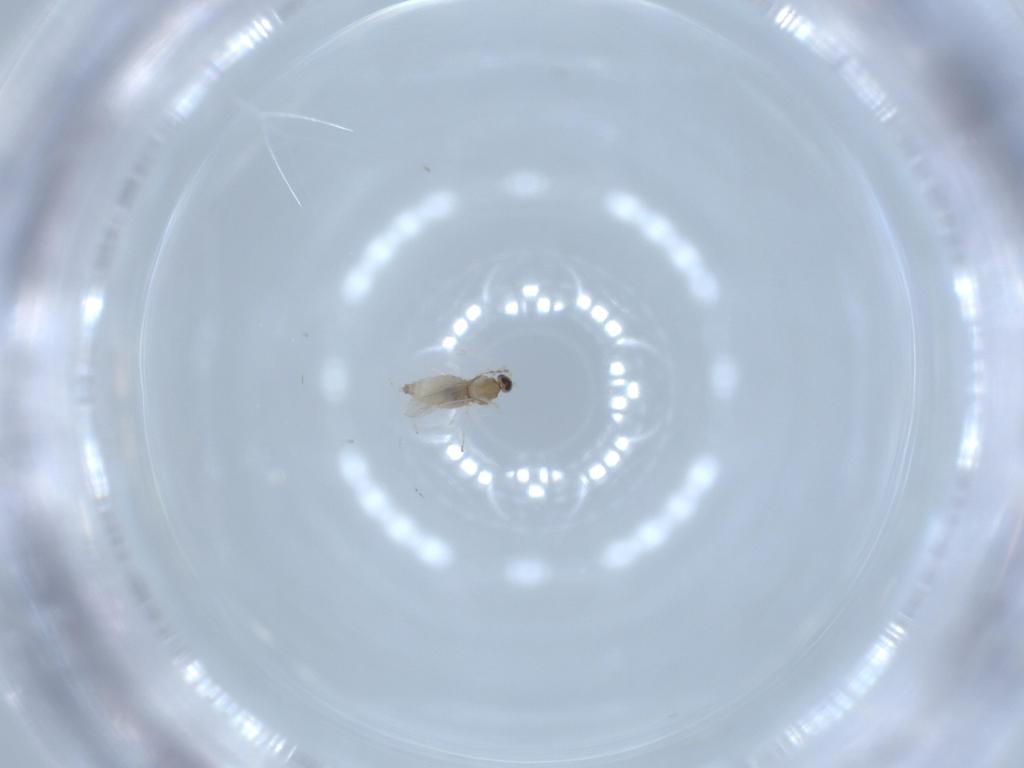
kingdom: Animalia
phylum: Arthropoda
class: Insecta
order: Diptera
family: Cecidomyiidae
